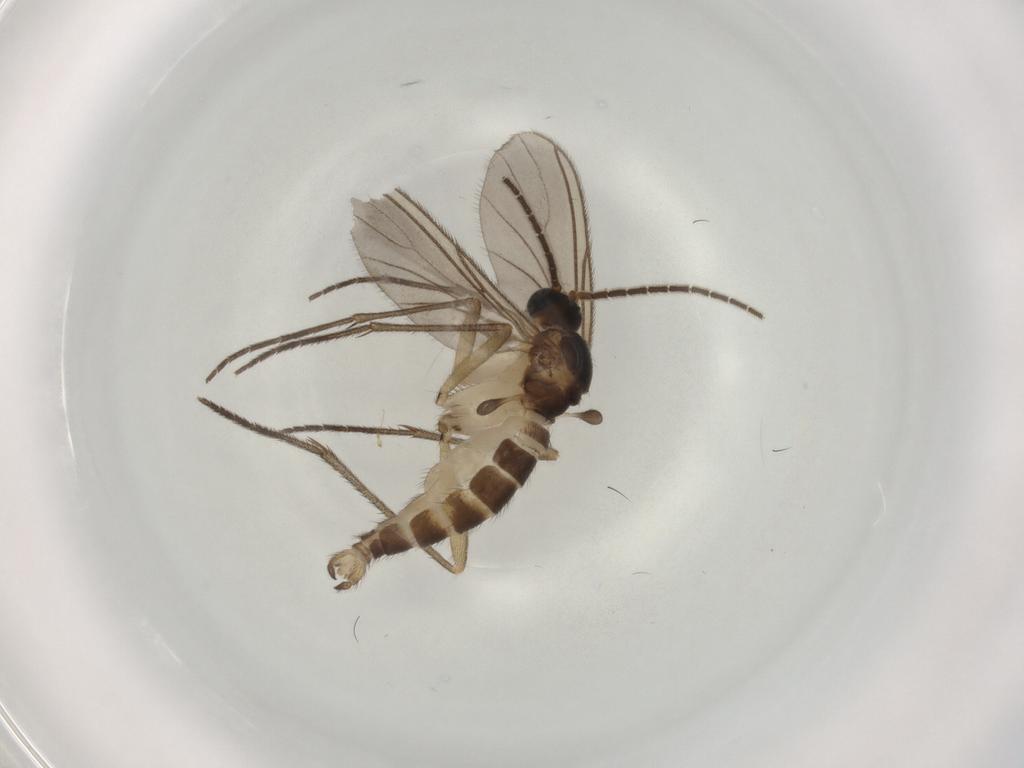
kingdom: Animalia
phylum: Arthropoda
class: Insecta
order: Diptera
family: Sciaridae
